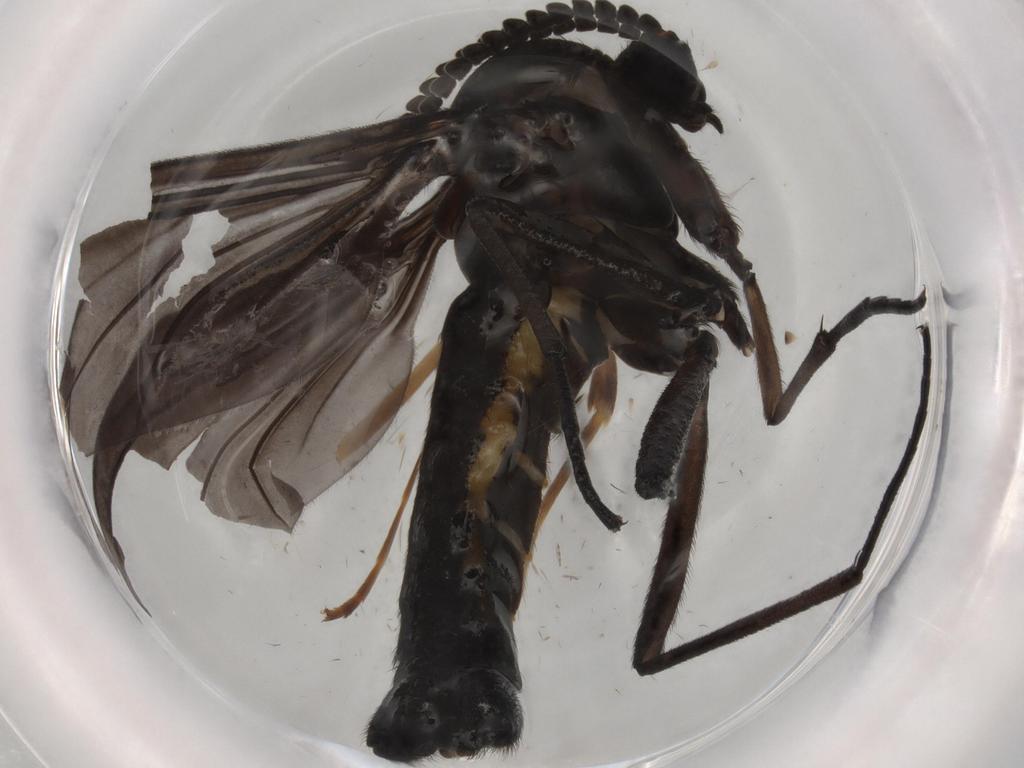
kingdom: Animalia
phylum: Arthropoda
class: Insecta
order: Diptera
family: Sciaridae
